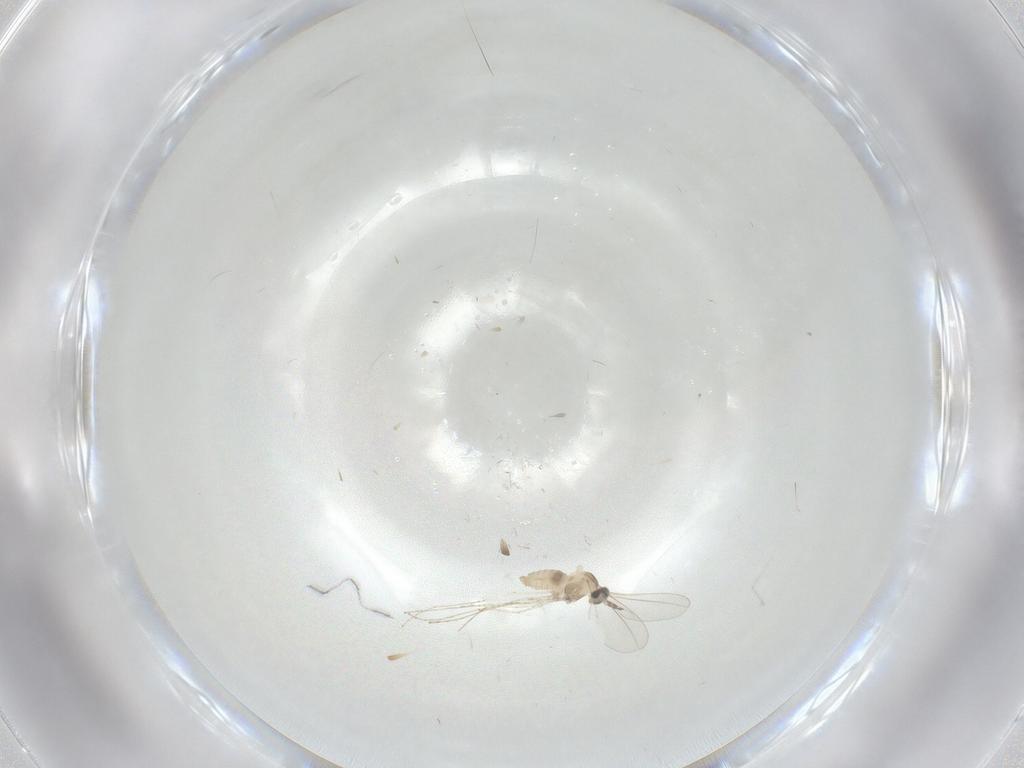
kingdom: Animalia
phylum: Arthropoda
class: Insecta
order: Diptera
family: Cecidomyiidae
